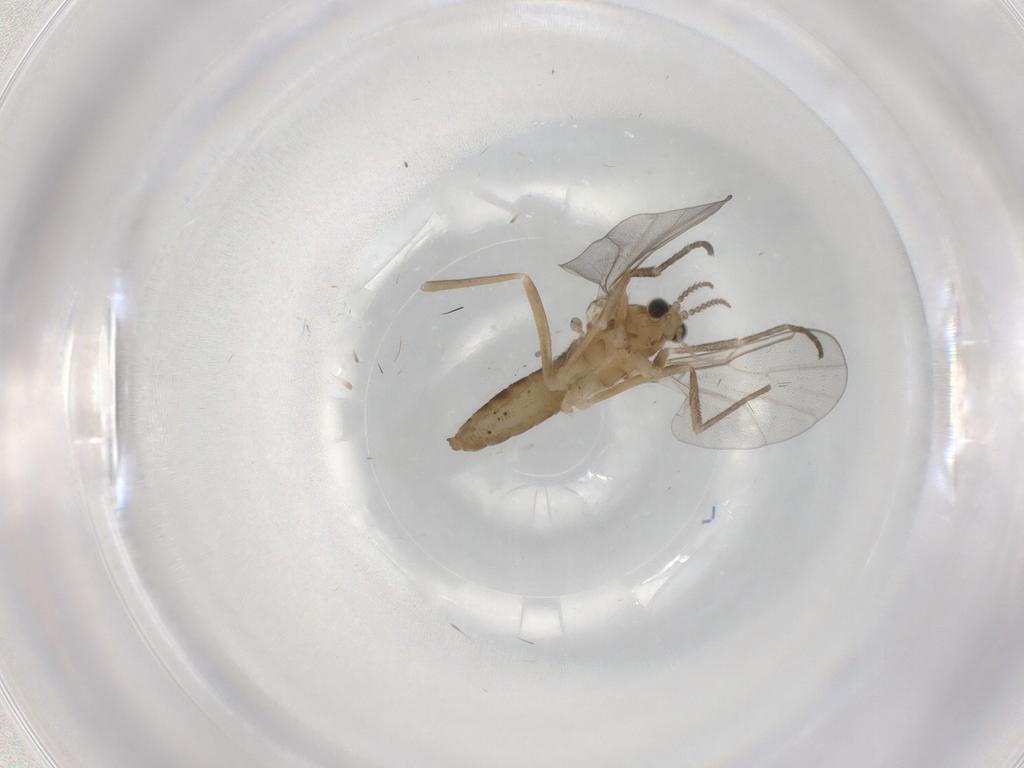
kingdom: Animalia
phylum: Arthropoda
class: Insecta
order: Diptera
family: Cecidomyiidae
